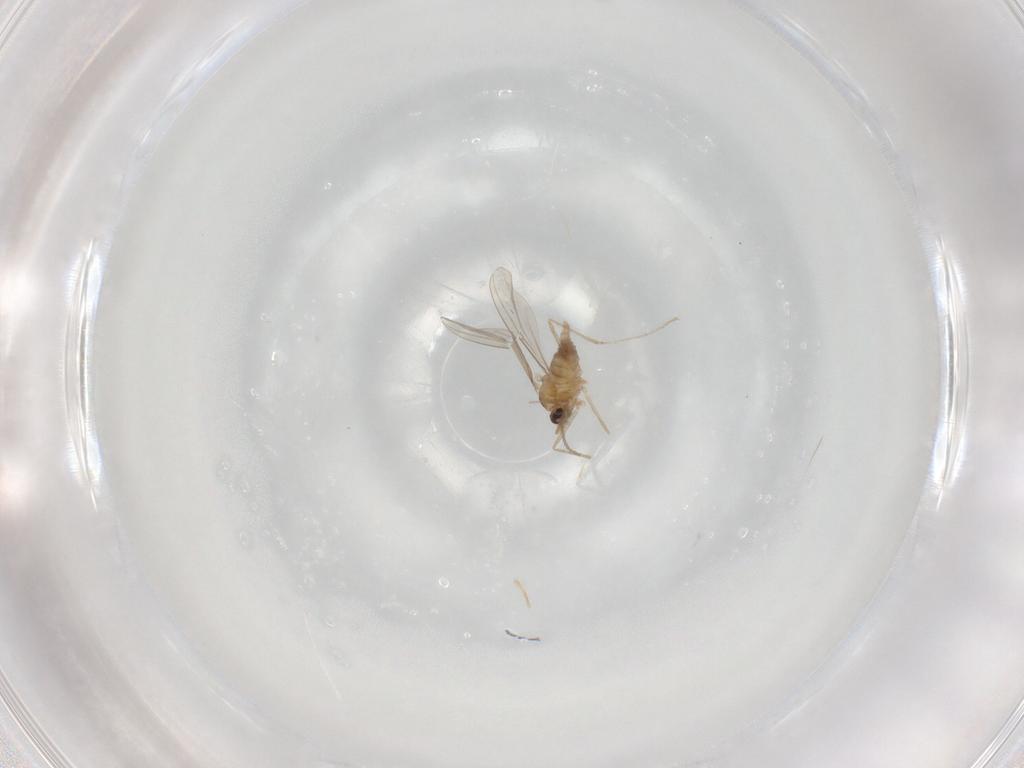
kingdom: Animalia
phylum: Arthropoda
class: Insecta
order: Diptera
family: Cecidomyiidae
